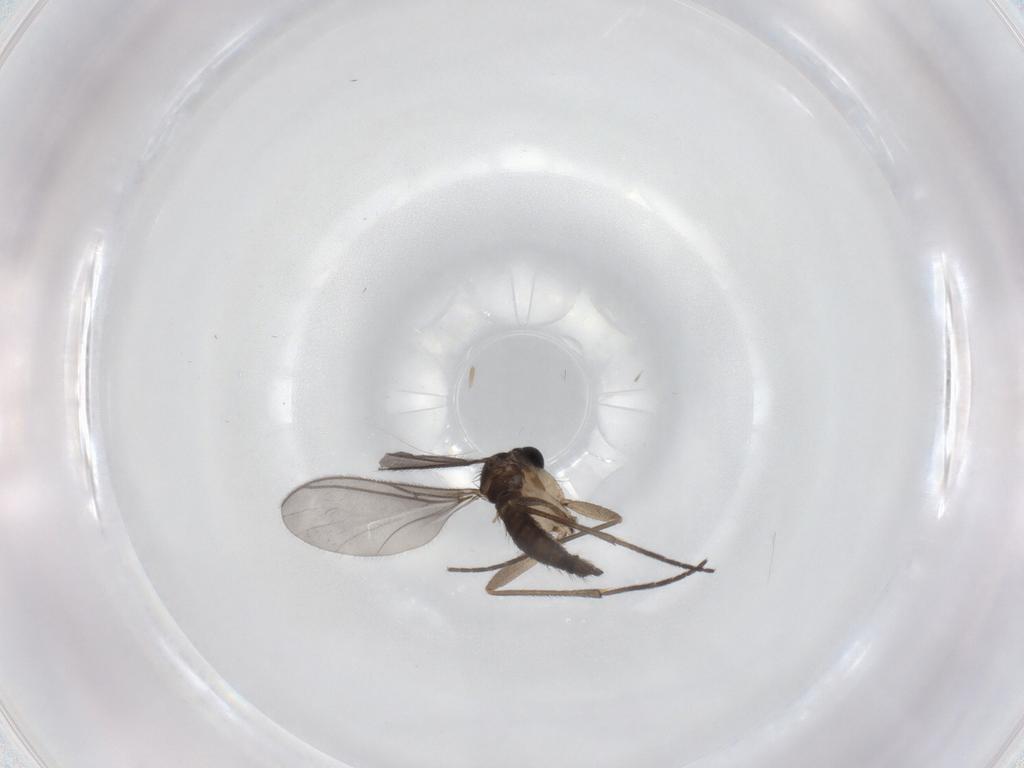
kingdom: Animalia
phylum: Arthropoda
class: Insecta
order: Diptera
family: Sciaridae
